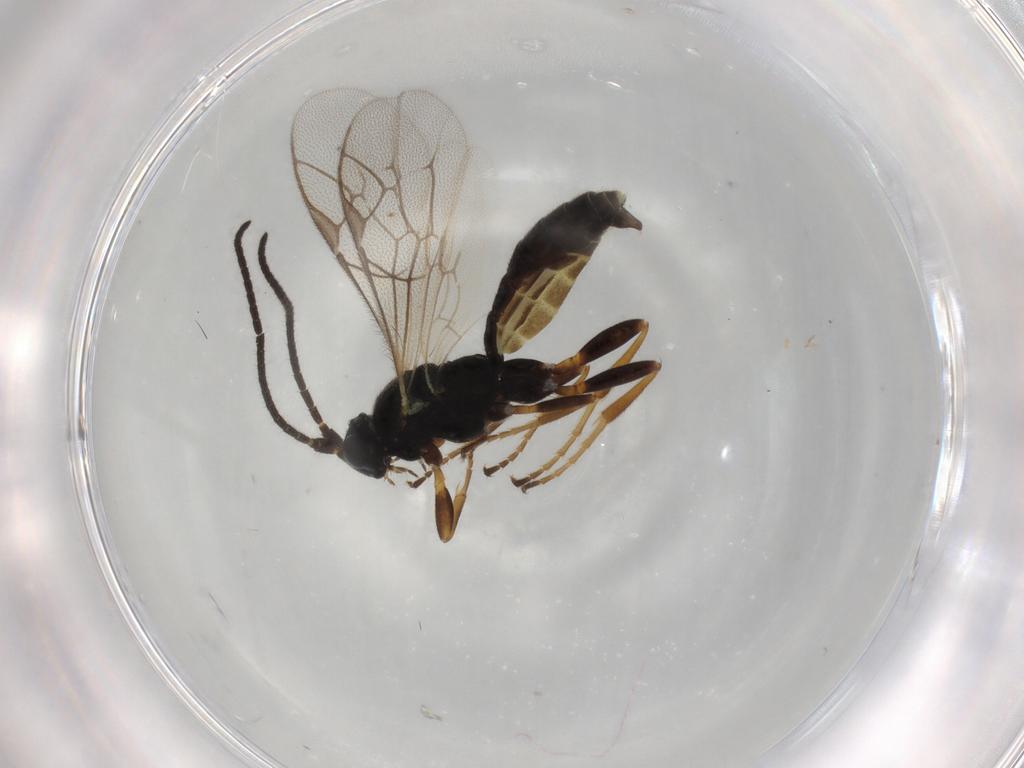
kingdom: Animalia
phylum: Arthropoda
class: Insecta
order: Hymenoptera
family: Ichneumonidae
